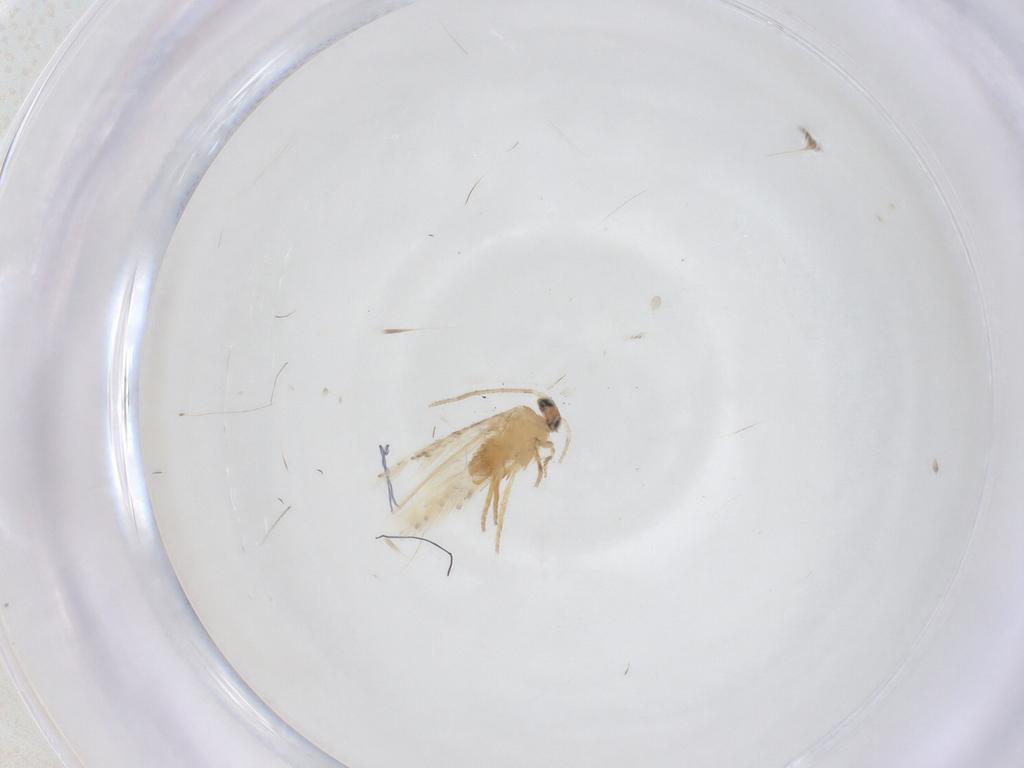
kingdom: Animalia
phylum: Arthropoda
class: Insecta
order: Lepidoptera
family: Nepticulidae
